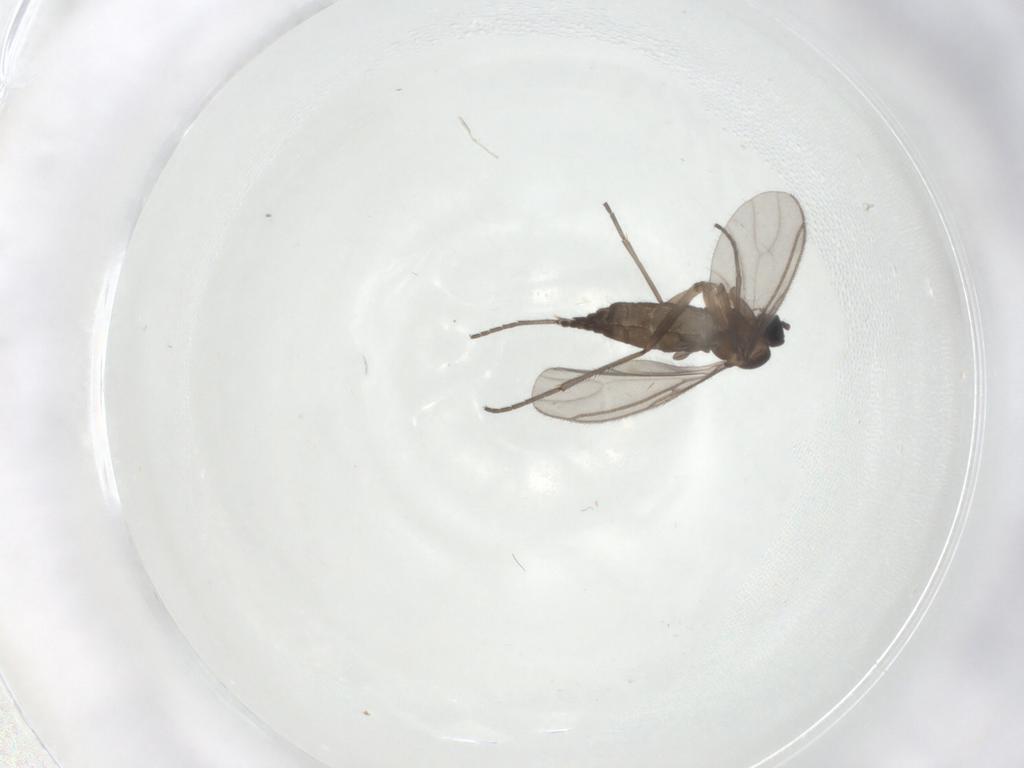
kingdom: Animalia
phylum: Arthropoda
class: Insecta
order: Diptera
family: Sciaridae
